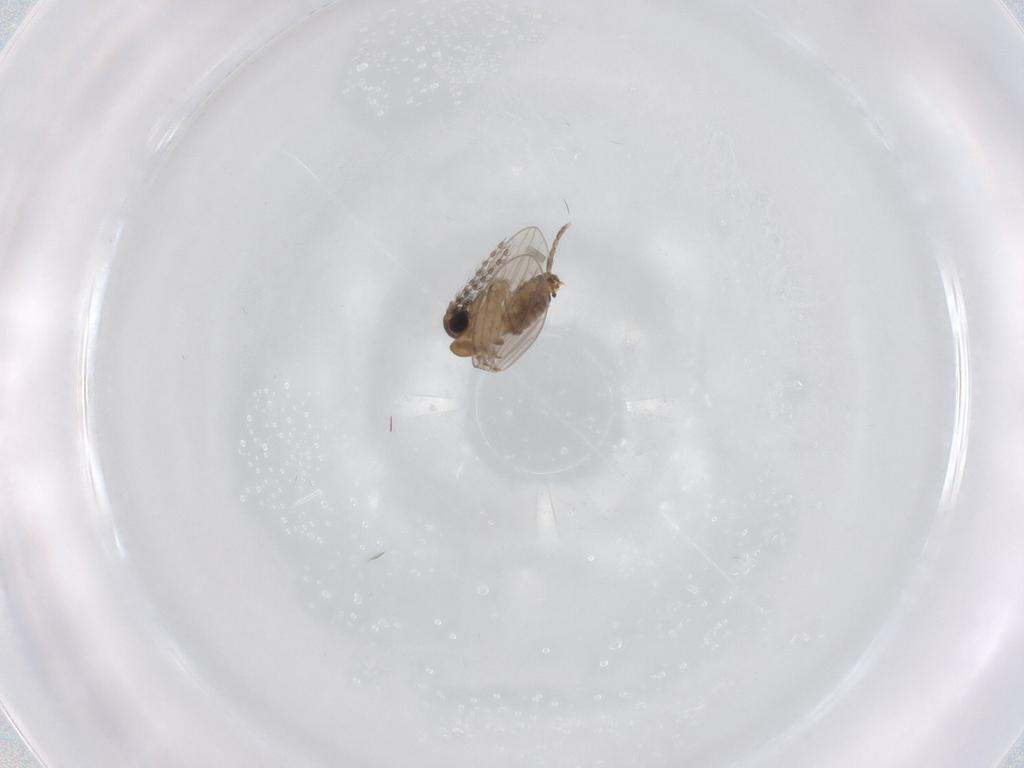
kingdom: Animalia
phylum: Arthropoda
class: Insecta
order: Diptera
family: Psychodidae
